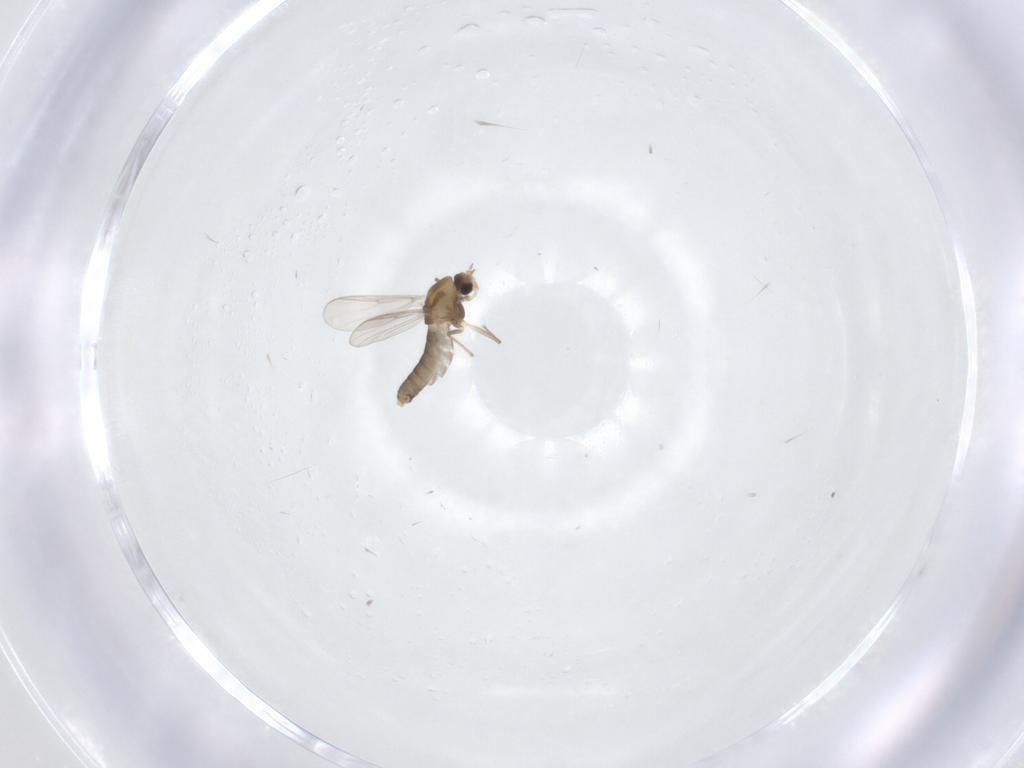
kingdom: Animalia
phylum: Arthropoda
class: Insecta
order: Diptera
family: Chironomidae
